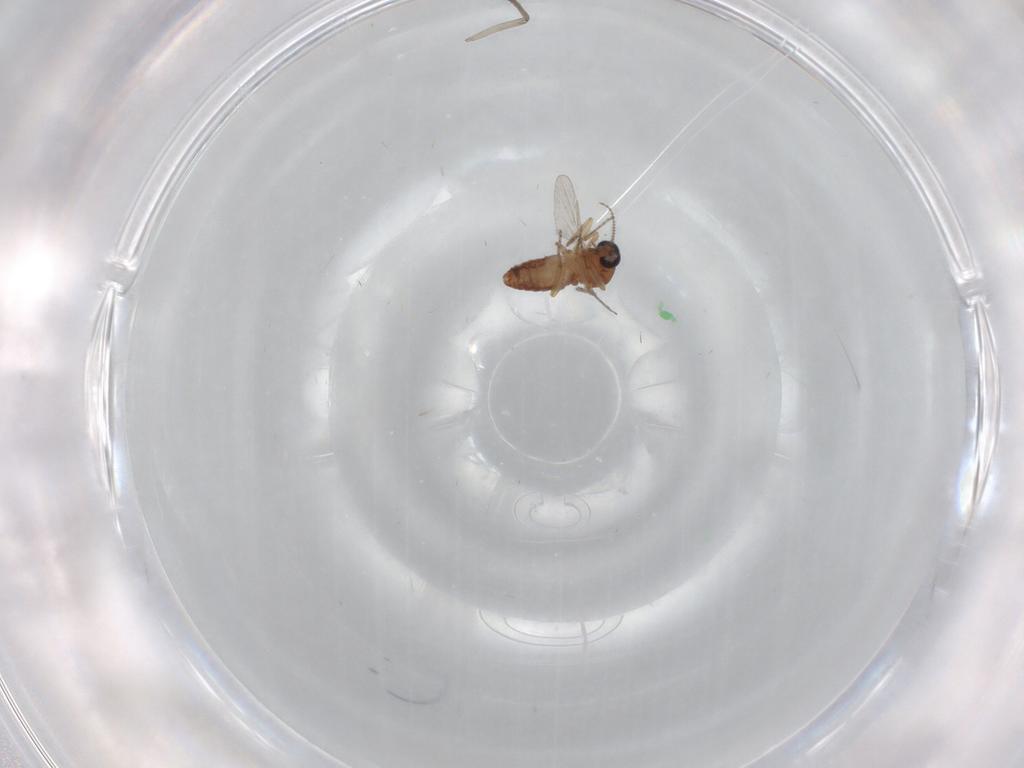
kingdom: Animalia
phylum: Arthropoda
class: Insecta
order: Diptera
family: Ceratopogonidae
